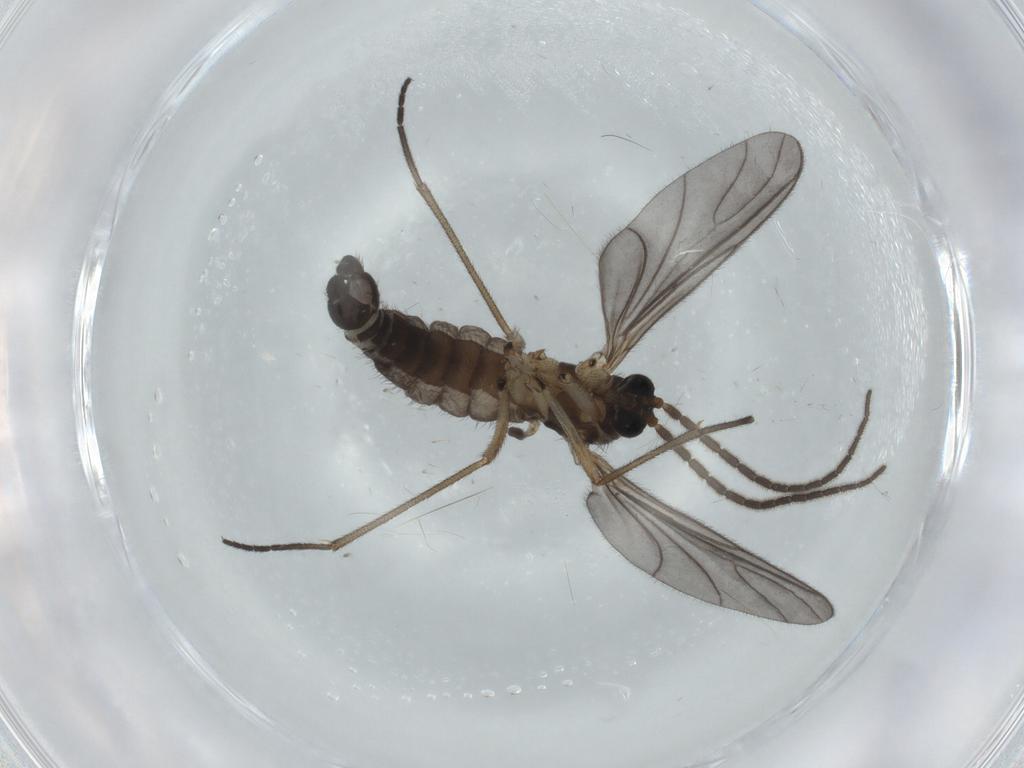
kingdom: Animalia
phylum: Arthropoda
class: Insecta
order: Diptera
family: Sciaridae
